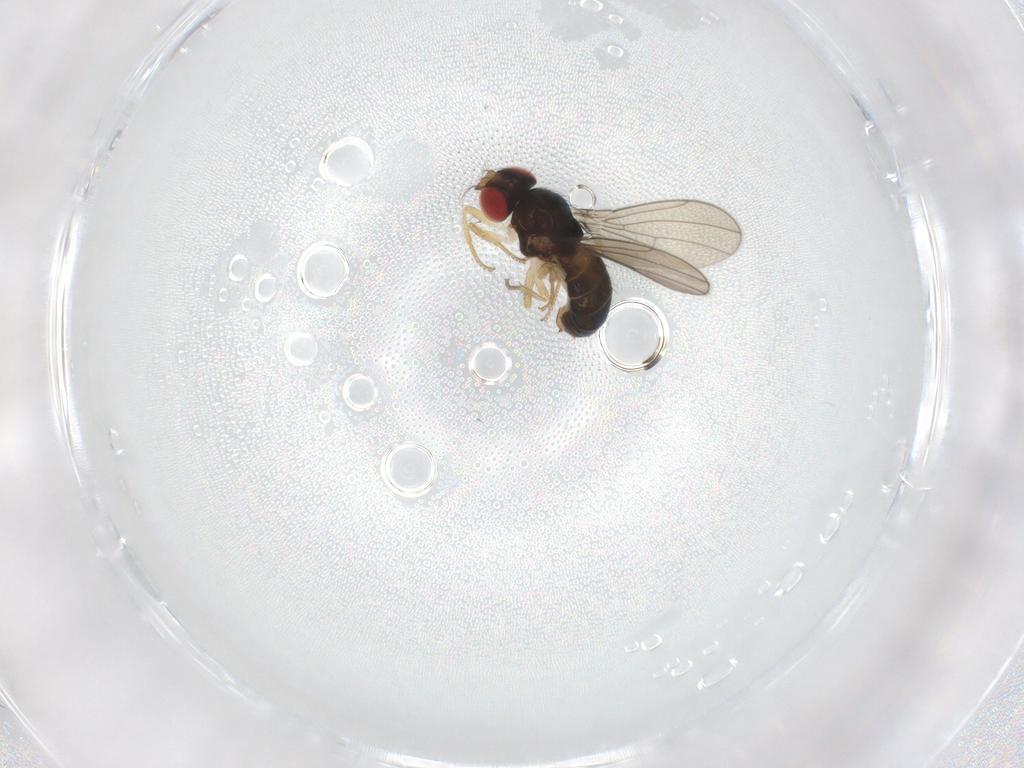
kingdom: Animalia
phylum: Arthropoda
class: Insecta
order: Diptera
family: Drosophilidae
